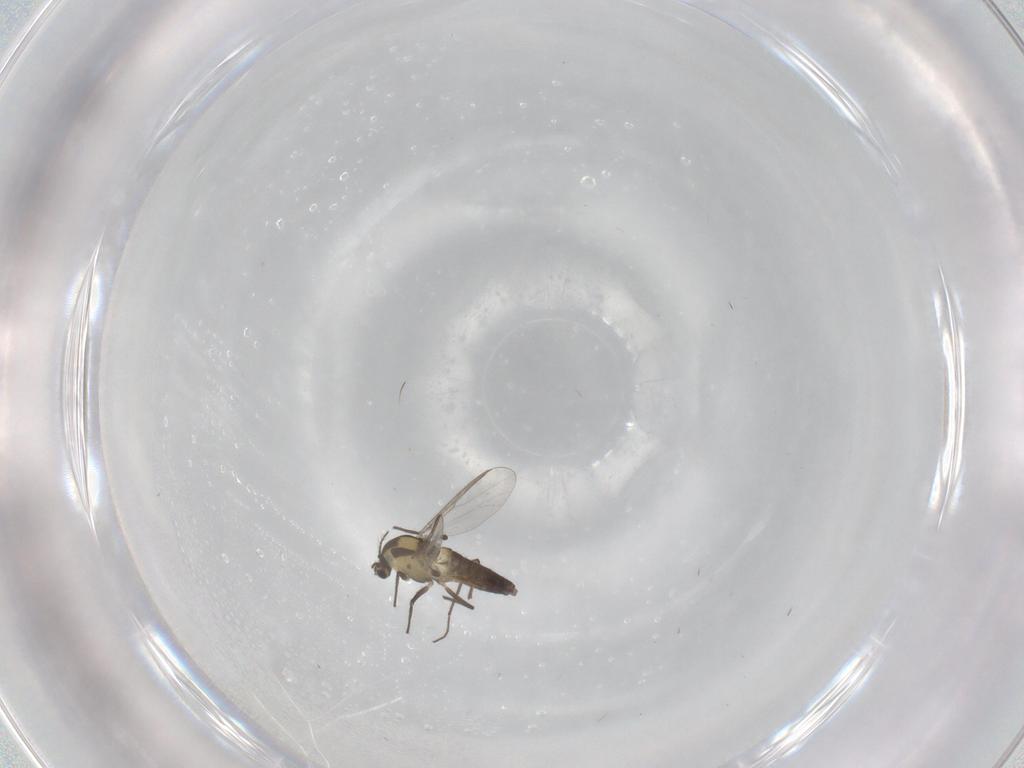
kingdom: Animalia
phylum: Arthropoda
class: Insecta
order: Diptera
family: Chironomidae
